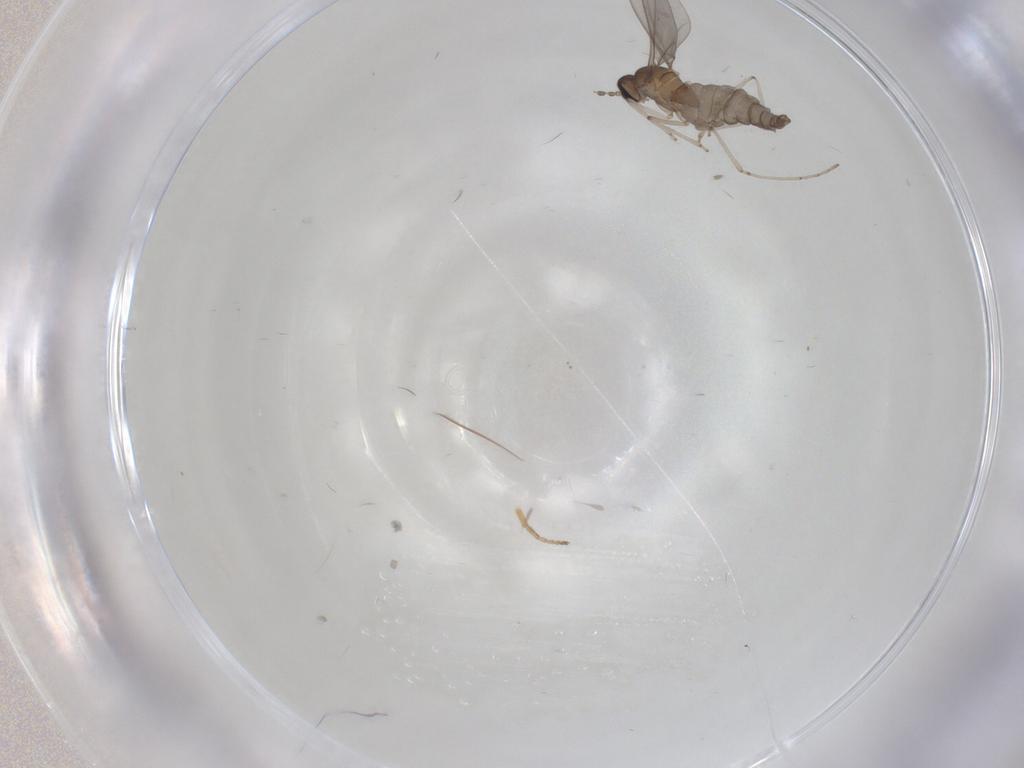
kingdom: Animalia
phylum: Arthropoda
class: Insecta
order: Diptera
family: Cecidomyiidae
